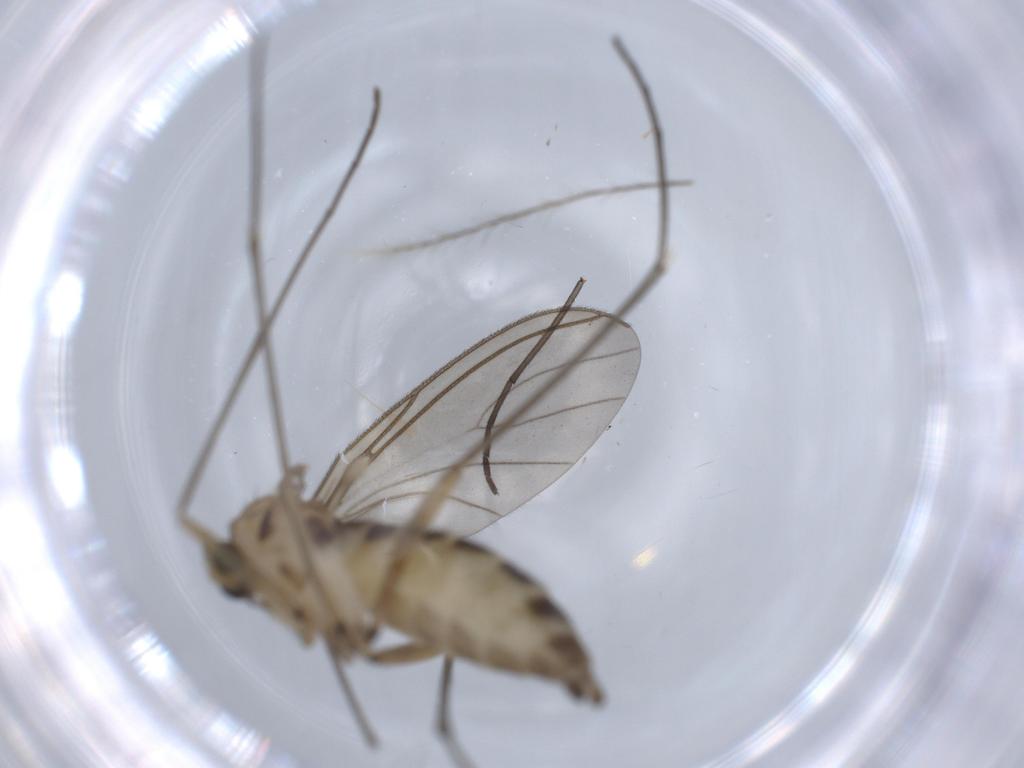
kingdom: Animalia
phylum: Arthropoda
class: Insecta
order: Diptera
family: Sciaridae
